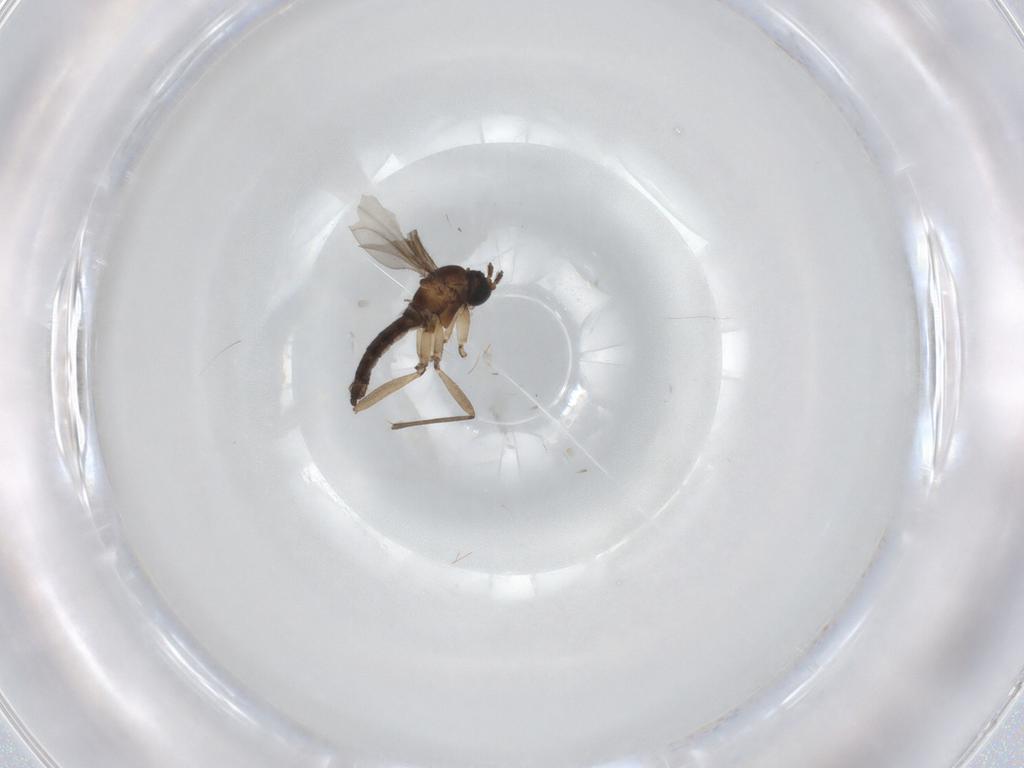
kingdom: Animalia
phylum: Arthropoda
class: Insecta
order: Diptera
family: Sciaridae
